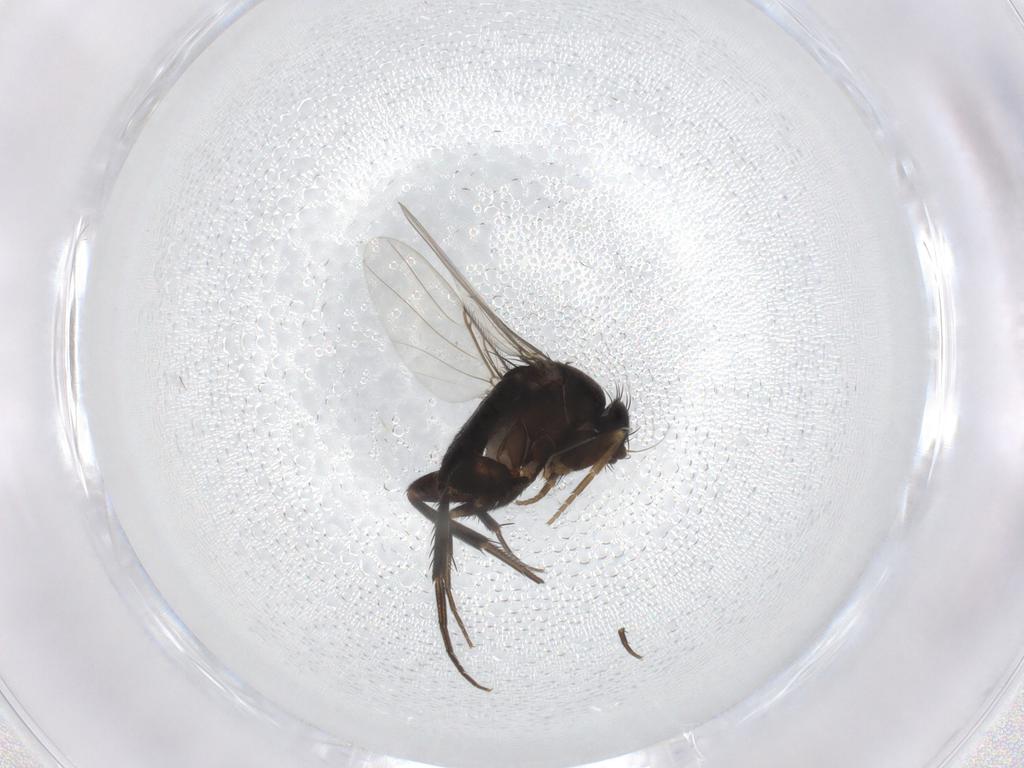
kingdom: Animalia
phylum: Arthropoda
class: Insecta
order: Diptera
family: Phoridae
